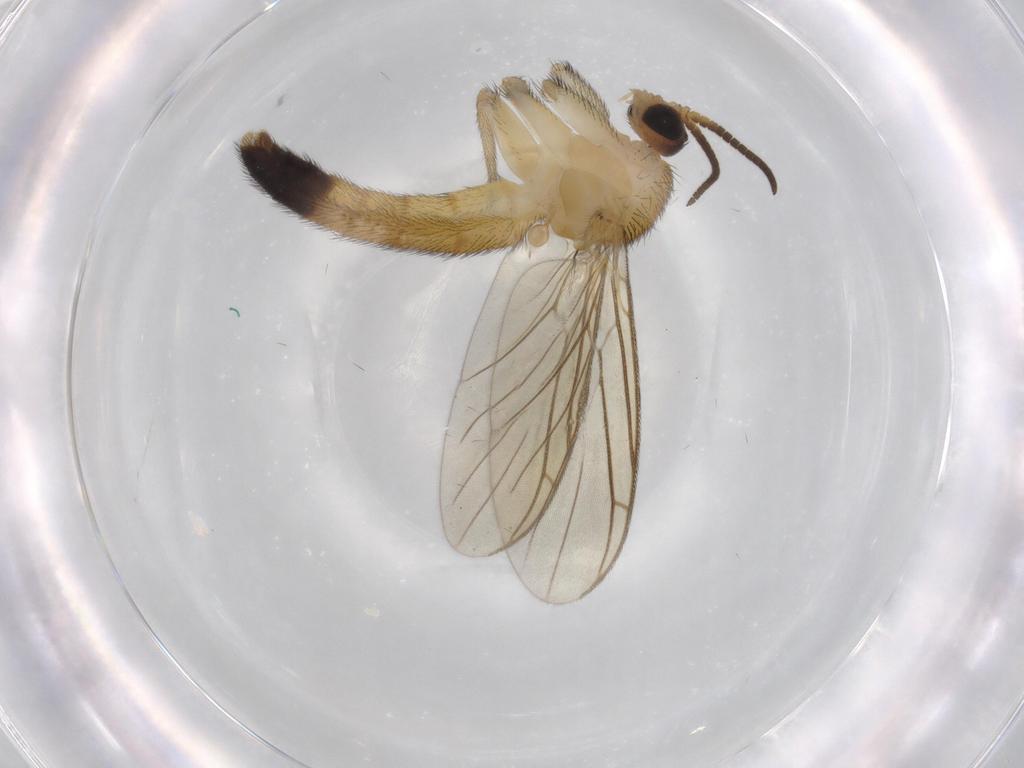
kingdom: Animalia
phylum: Arthropoda
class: Insecta
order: Diptera
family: Keroplatidae
